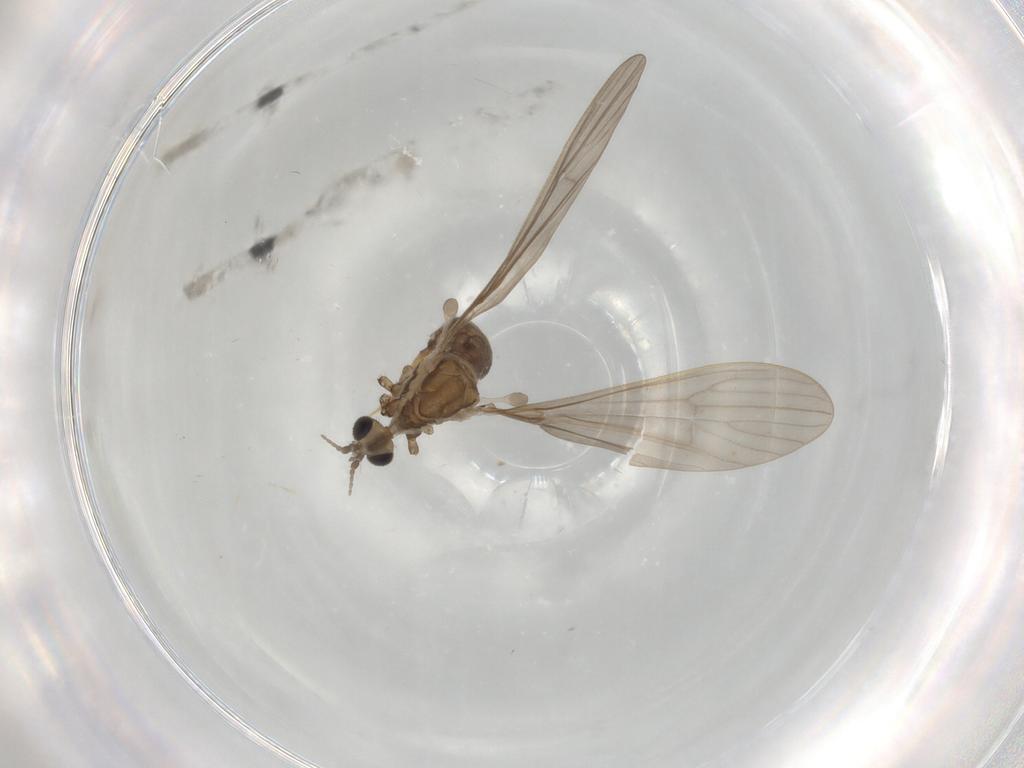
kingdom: Animalia
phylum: Arthropoda
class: Insecta
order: Diptera
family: Limoniidae
